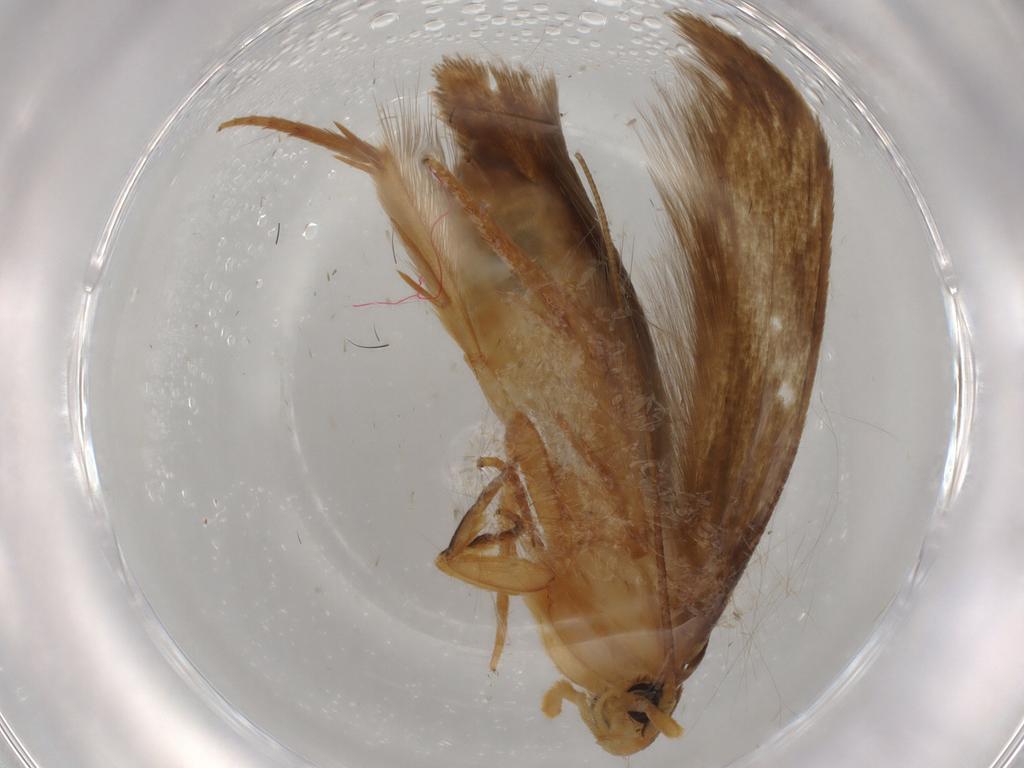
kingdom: Animalia
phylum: Arthropoda
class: Insecta
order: Lepidoptera
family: Tineidae
